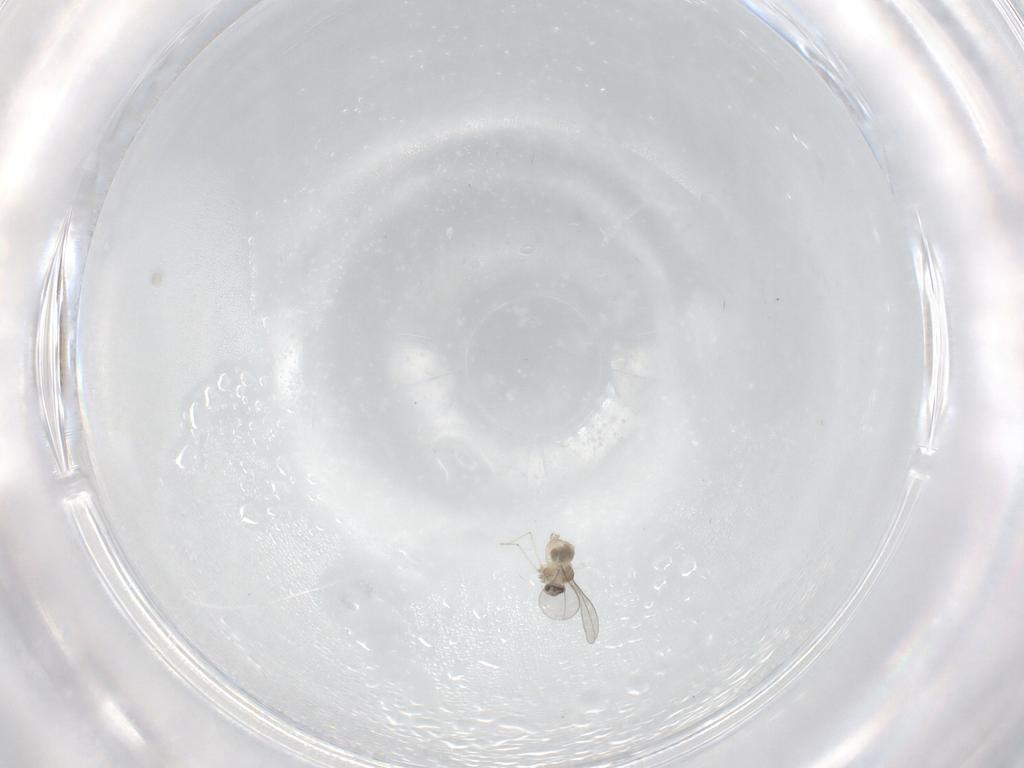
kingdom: Animalia
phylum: Arthropoda
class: Insecta
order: Diptera
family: Cecidomyiidae
